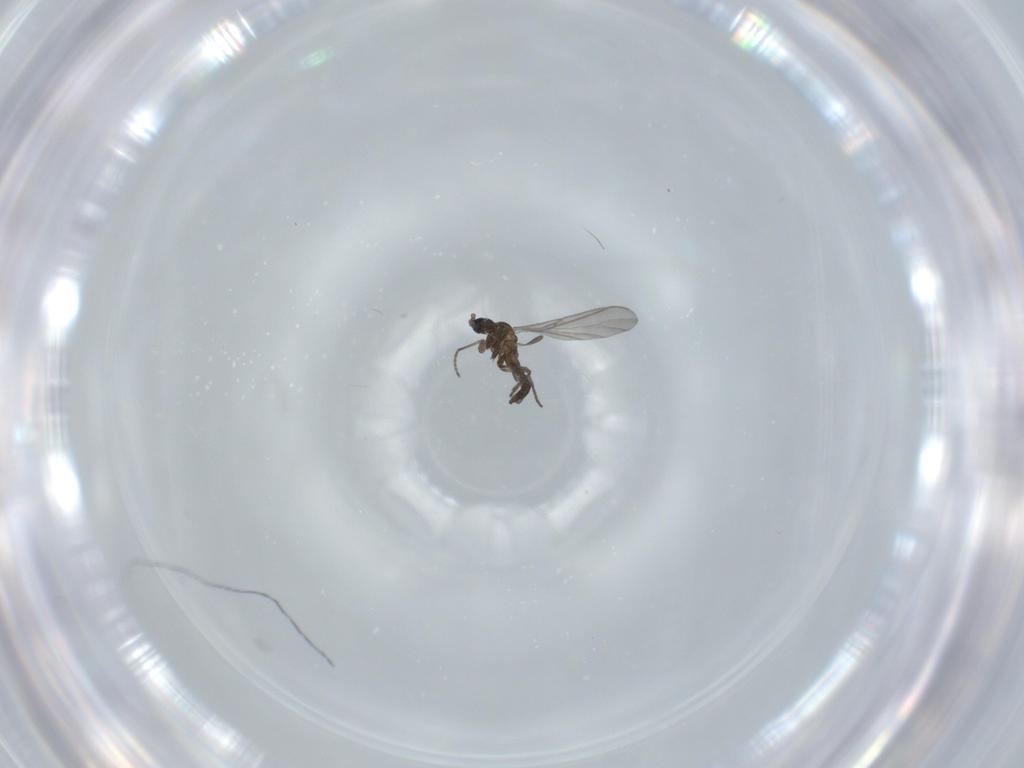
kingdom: Animalia
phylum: Arthropoda
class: Insecta
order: Diptera
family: Sciaridae
